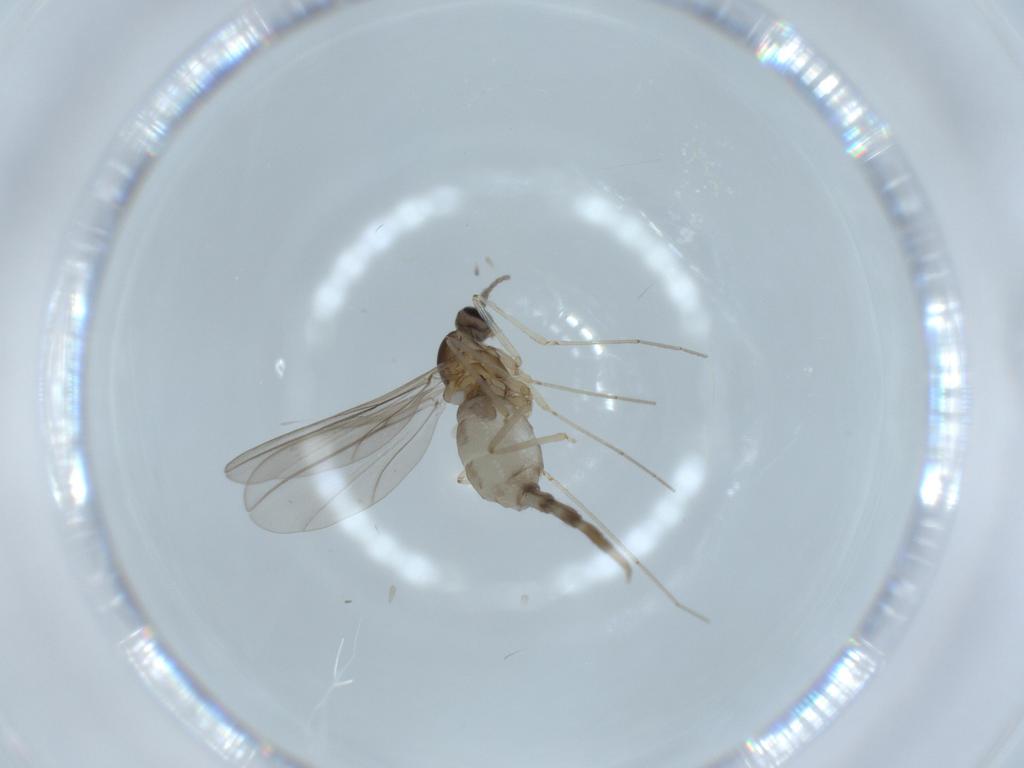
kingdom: Animalia
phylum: Arthropoda
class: Insecta
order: Diptera
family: Cecidomyiidae
